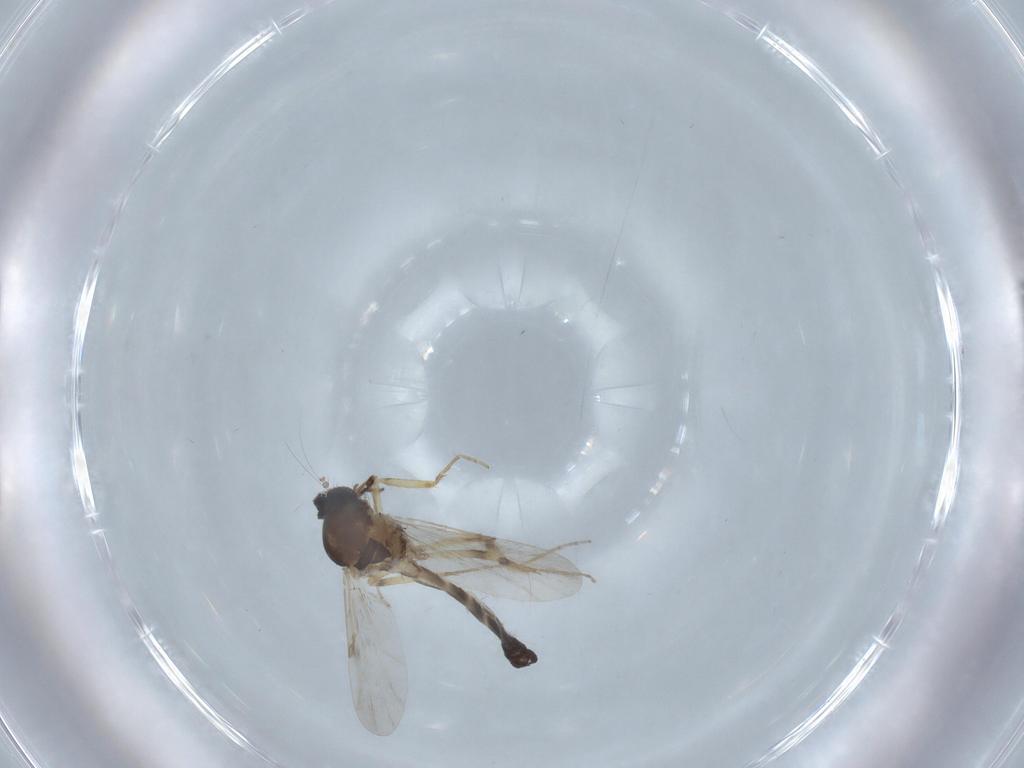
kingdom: Animalia
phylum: Arthropoda
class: Insecta
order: Diptera
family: Ceratopogonidae
